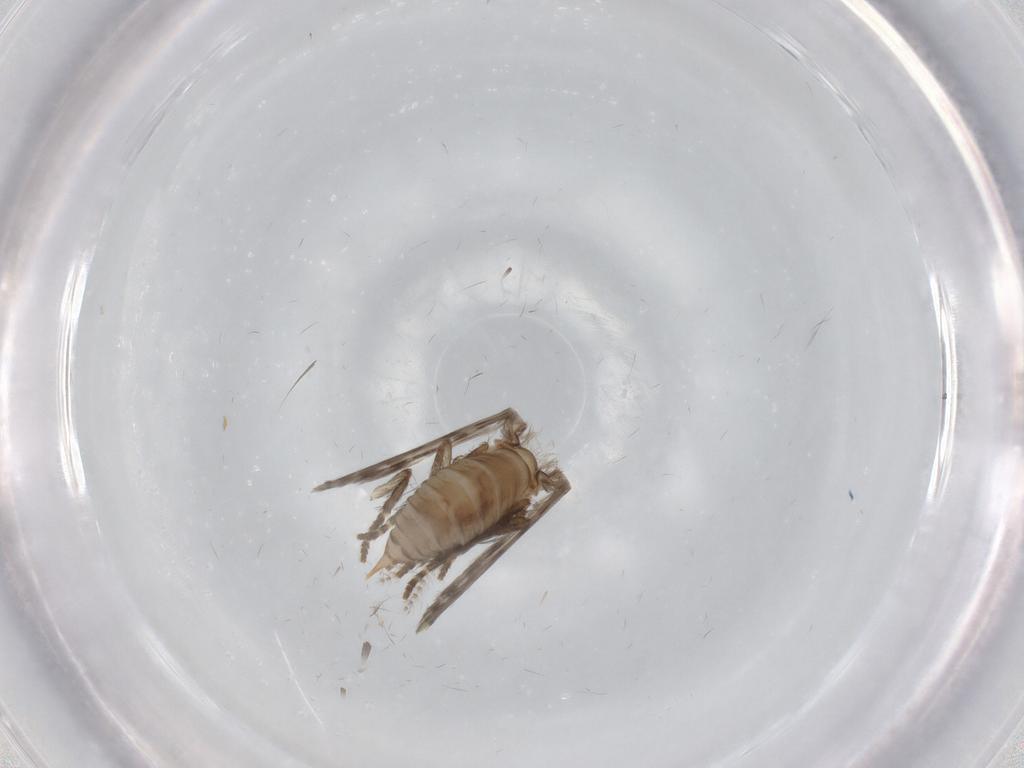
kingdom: Animalia
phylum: Arthropoda
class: Insecta
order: Diptera
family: Psychodidae
